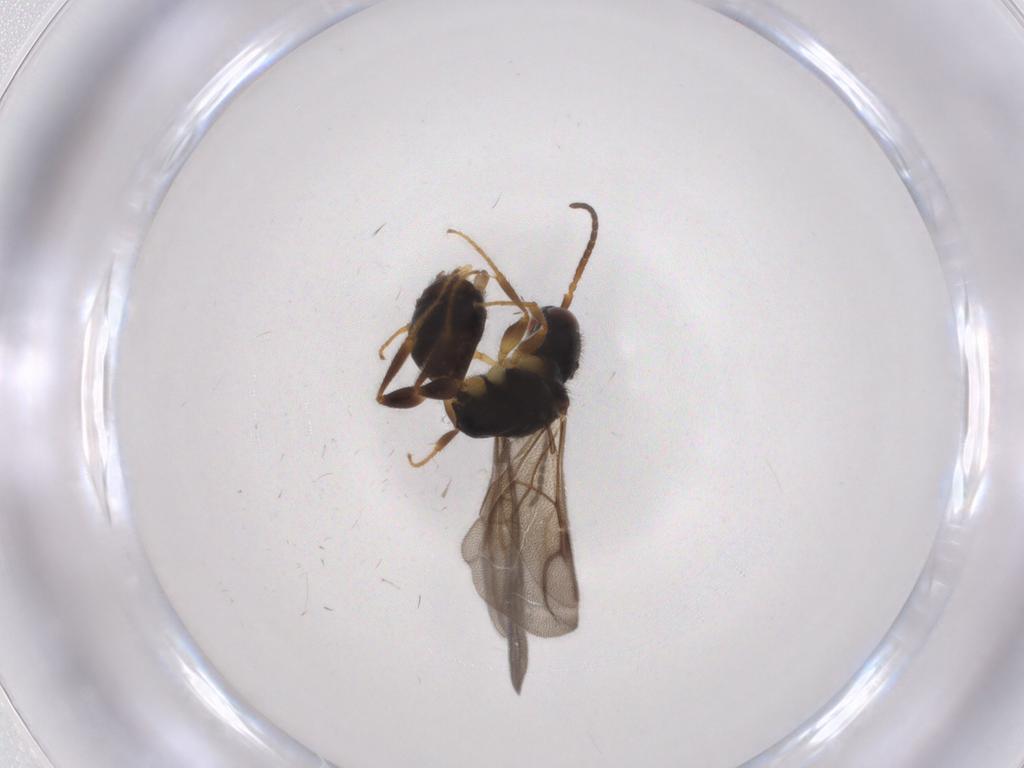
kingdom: Animalia
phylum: Arthropoda
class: Insecta
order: Hymenoptera
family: Bethylidae
